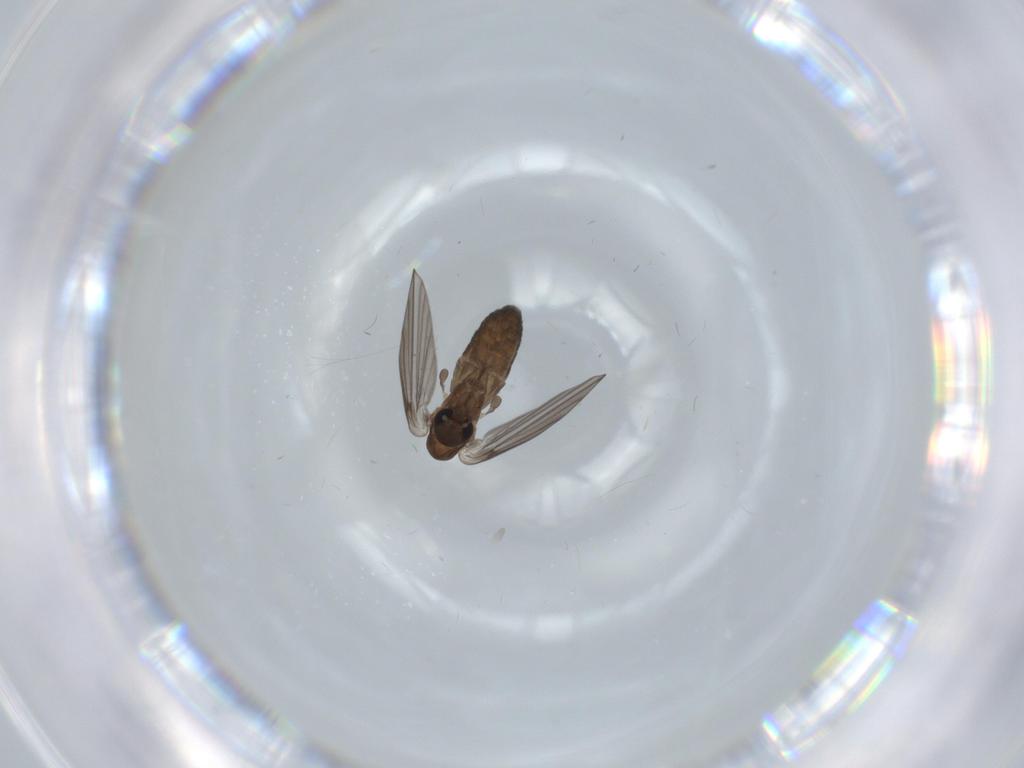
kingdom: Animalia
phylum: Arthropoda
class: Insecta
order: Diptera
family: Psychodidae
